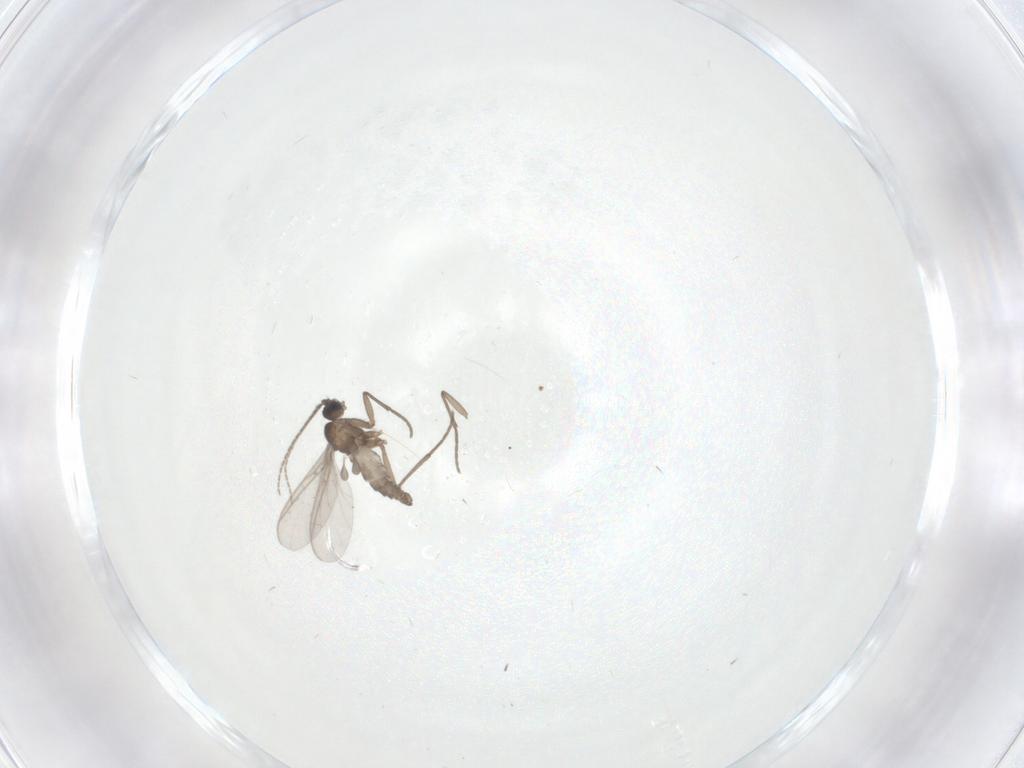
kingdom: Animalia
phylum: Arthropoda
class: Insecta
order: Diptera
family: Sciaridae
